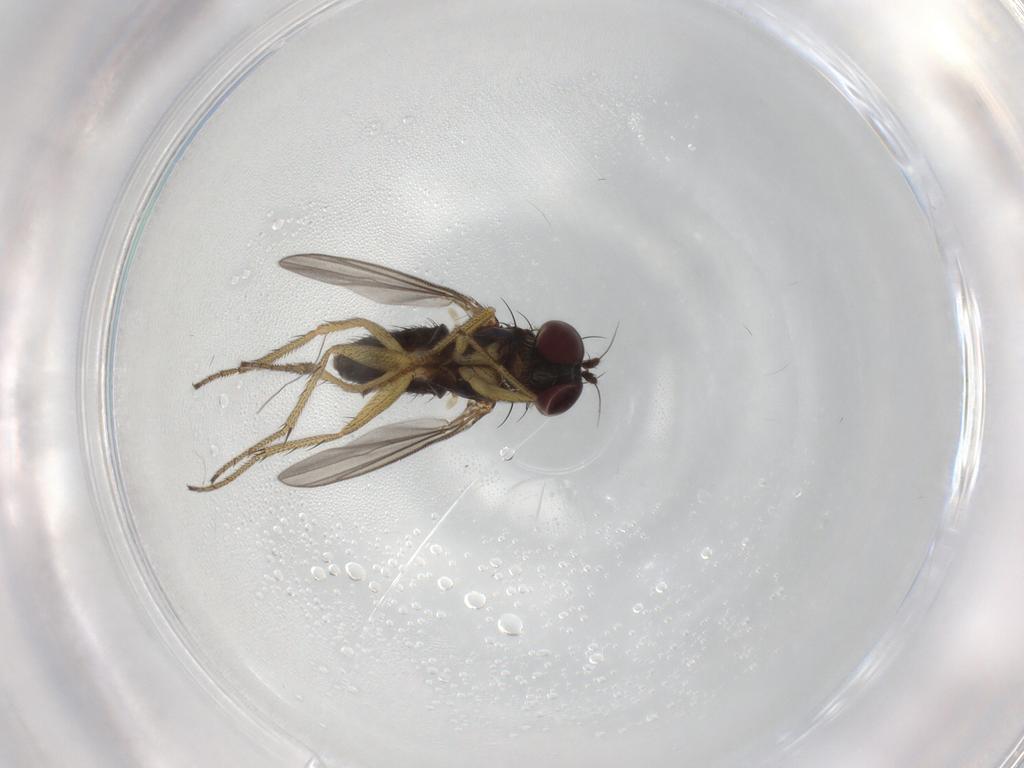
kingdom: Animalia
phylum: Arthropoda
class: Insecta
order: Diptera
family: Dolichopodidae
